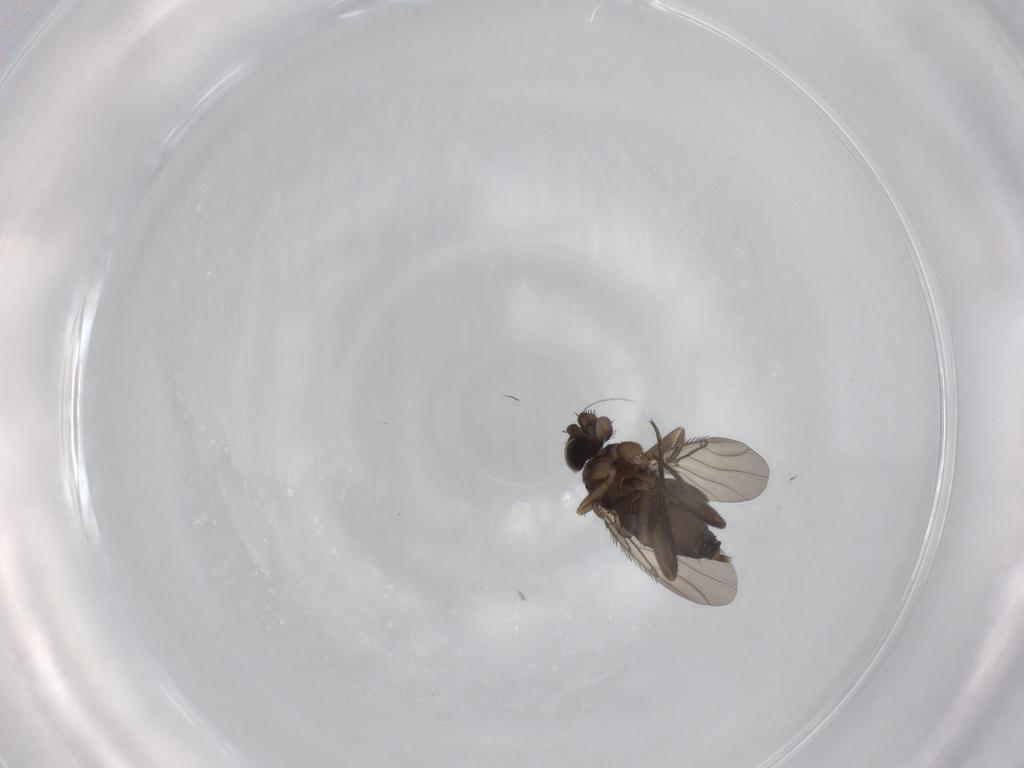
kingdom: Animalia
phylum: Arthropoda
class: Insecta
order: Diptera
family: Phoridae
